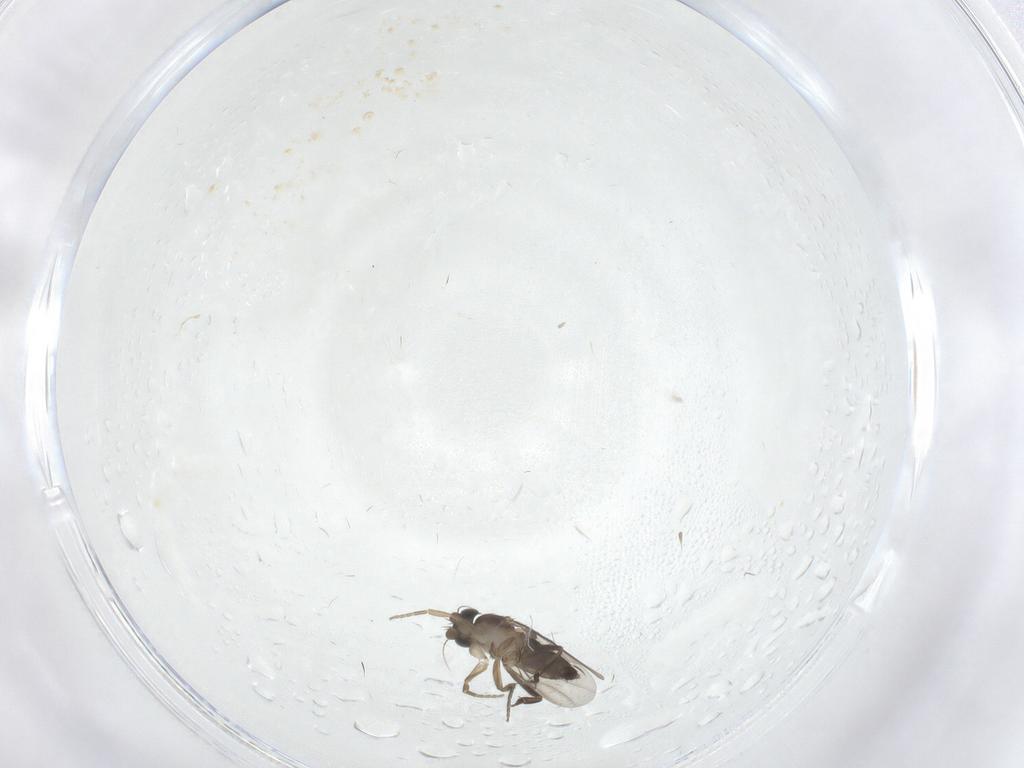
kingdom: Animalia
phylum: Arthropoda
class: Insecta
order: Diptera
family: Phoridae
